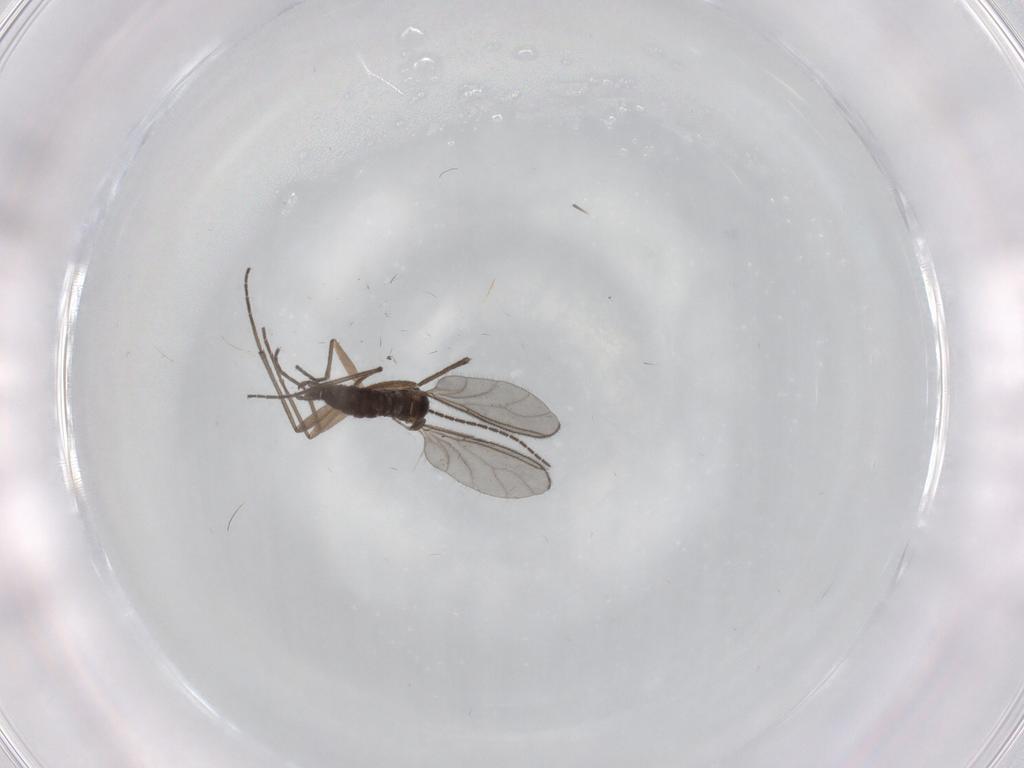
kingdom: Animalia
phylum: Arthropoda
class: Insecta
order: Diptera
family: Sciaridae
